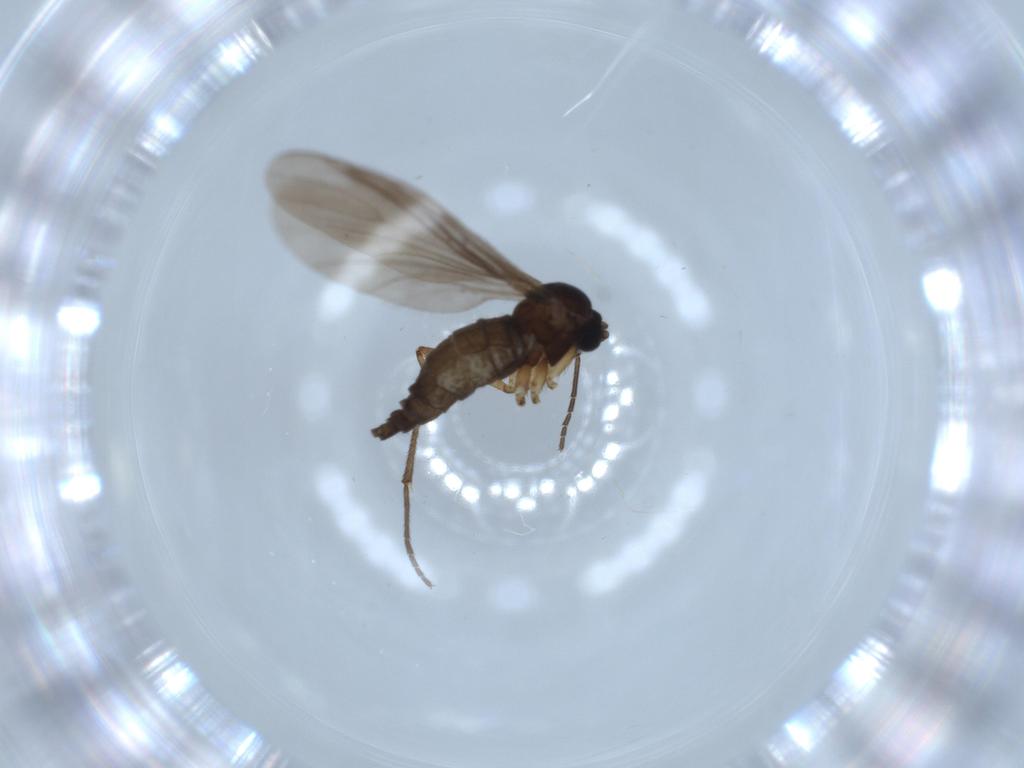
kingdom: Animalia
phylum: Arthropoda
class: Insecta
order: Diptera
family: Sciaridae
